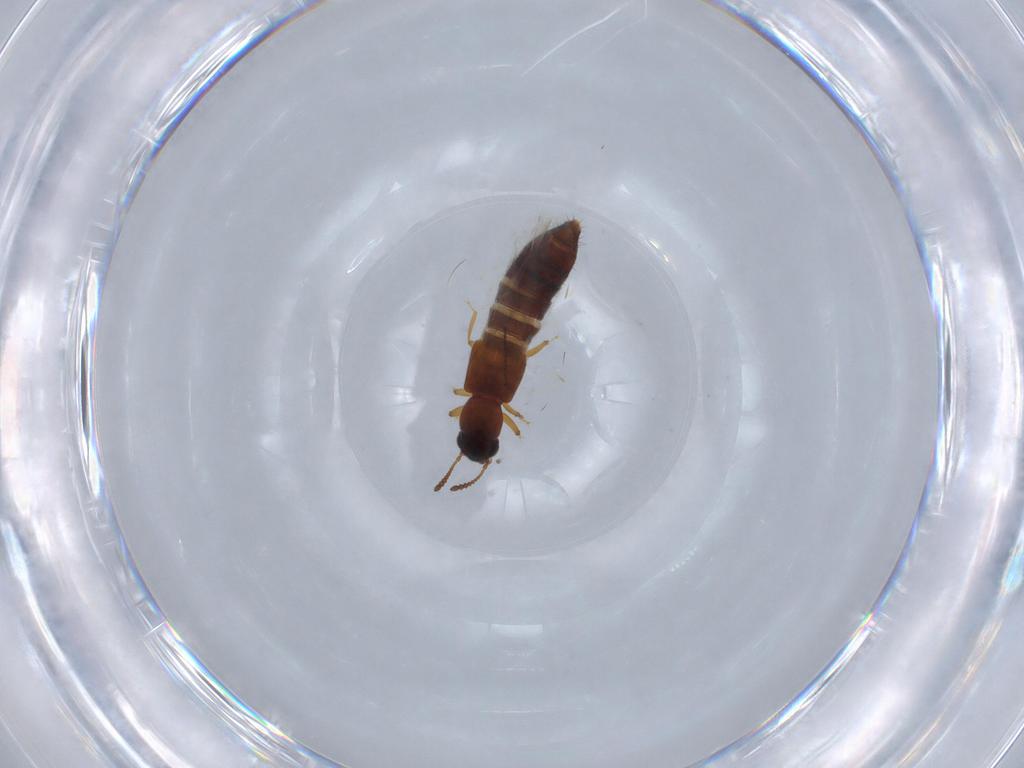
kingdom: Animalia
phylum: Arthropoda
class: Insecta
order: Coleoptera
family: Staphylinidae
